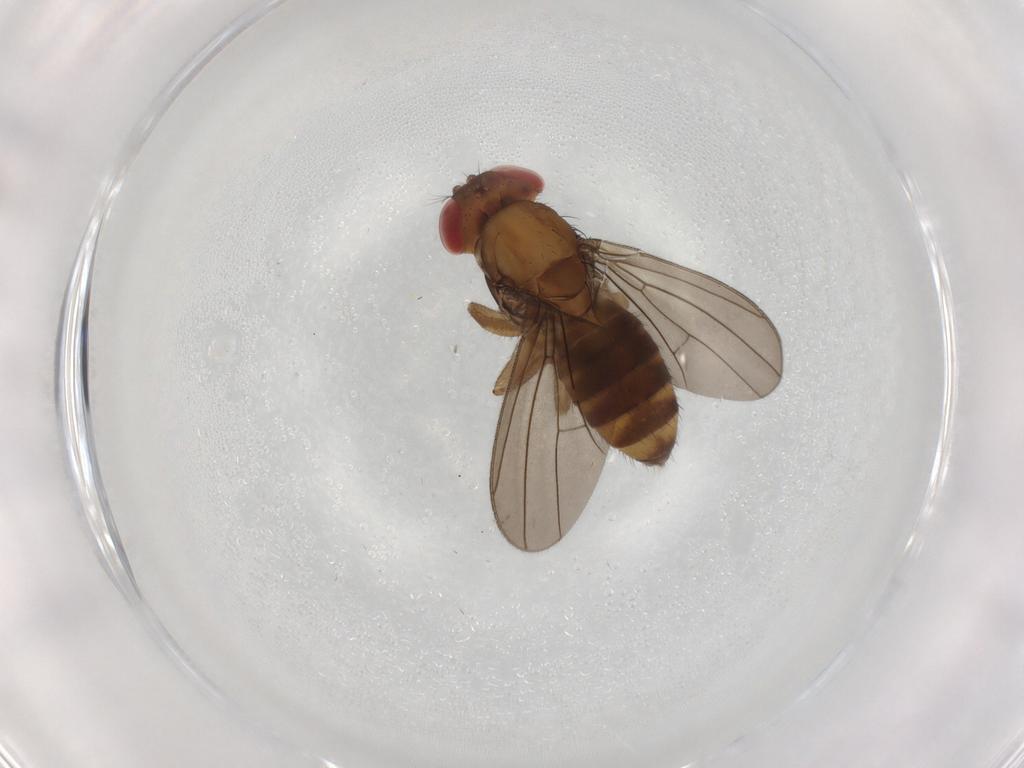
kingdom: Animalia
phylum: Arthropoda
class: Insecta
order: Diptera
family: Drosophilidae
